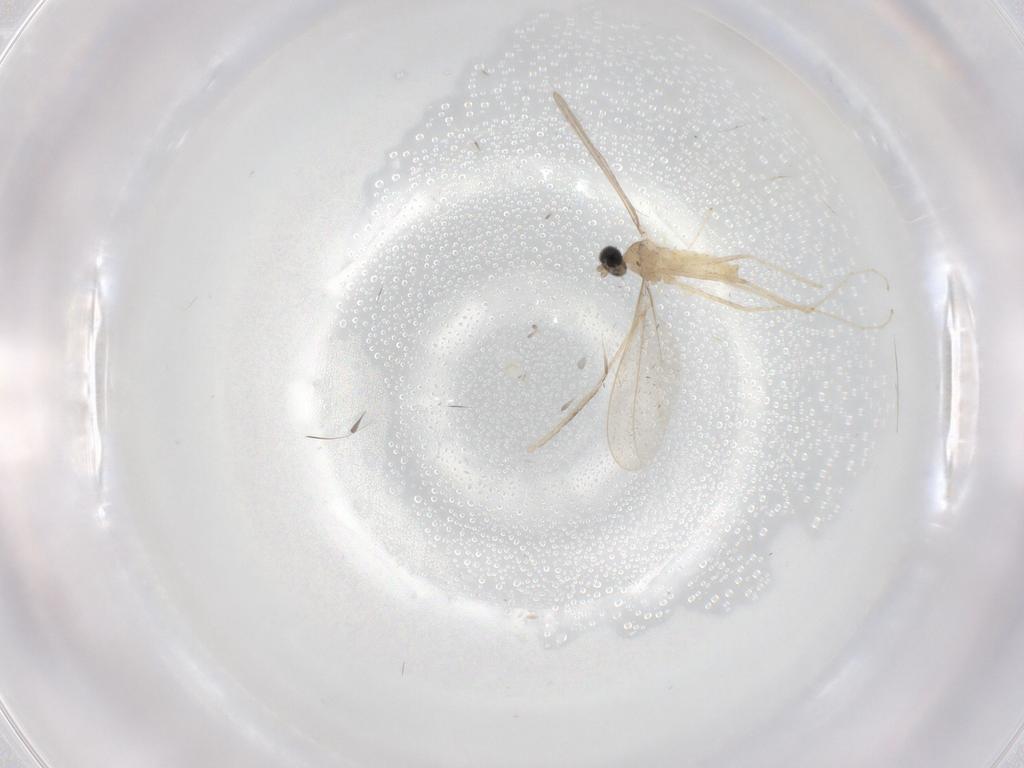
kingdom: Animalia
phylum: Arthropoda
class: Insecta
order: Diptera
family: Cecidomyiidae
